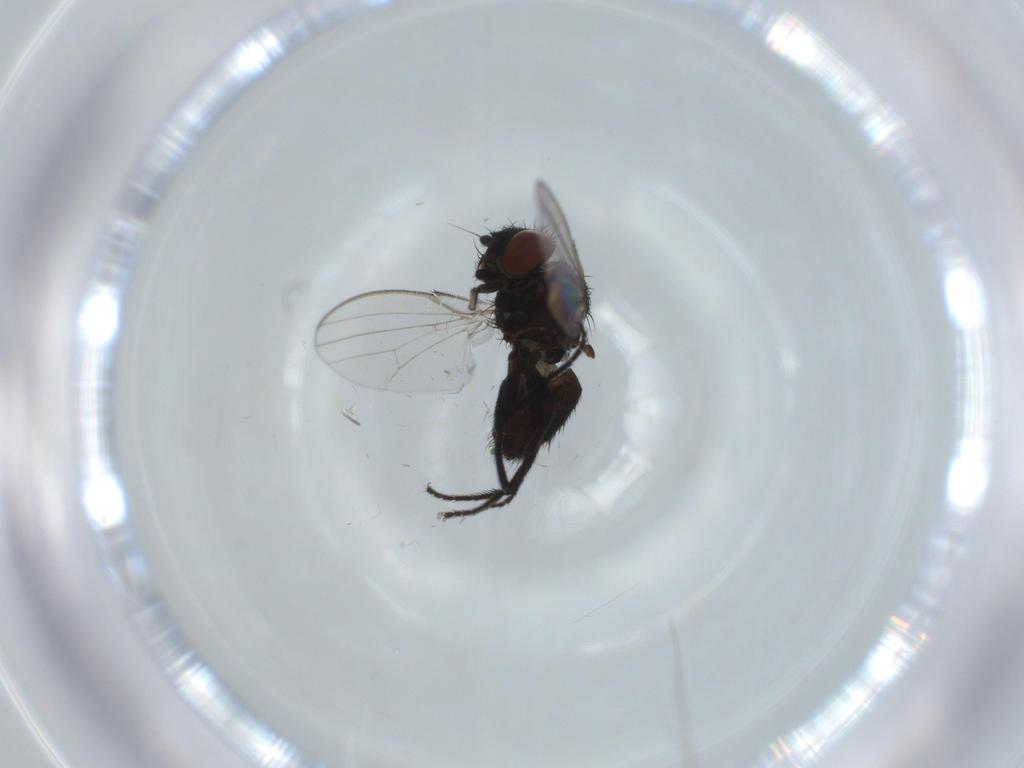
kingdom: Animalia
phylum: Arthropoda
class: Insecta
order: Diptera
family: Milichiidae
